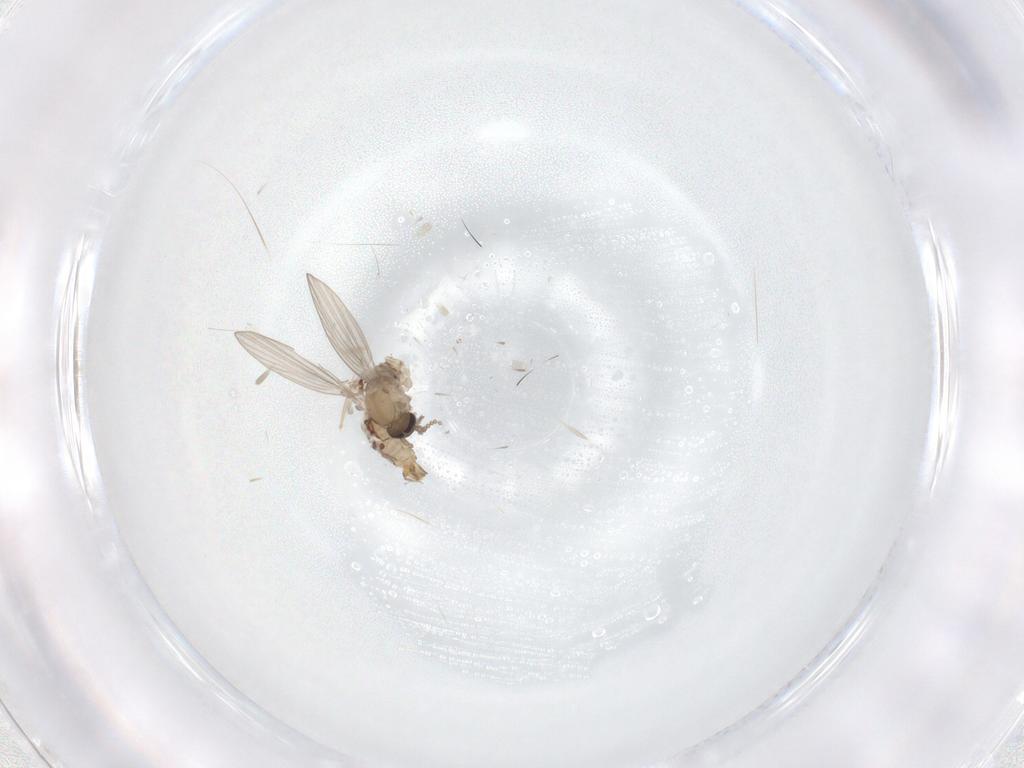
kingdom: Animalia
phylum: Arthropoda
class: Insecta
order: Diptera
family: Psychodidae
